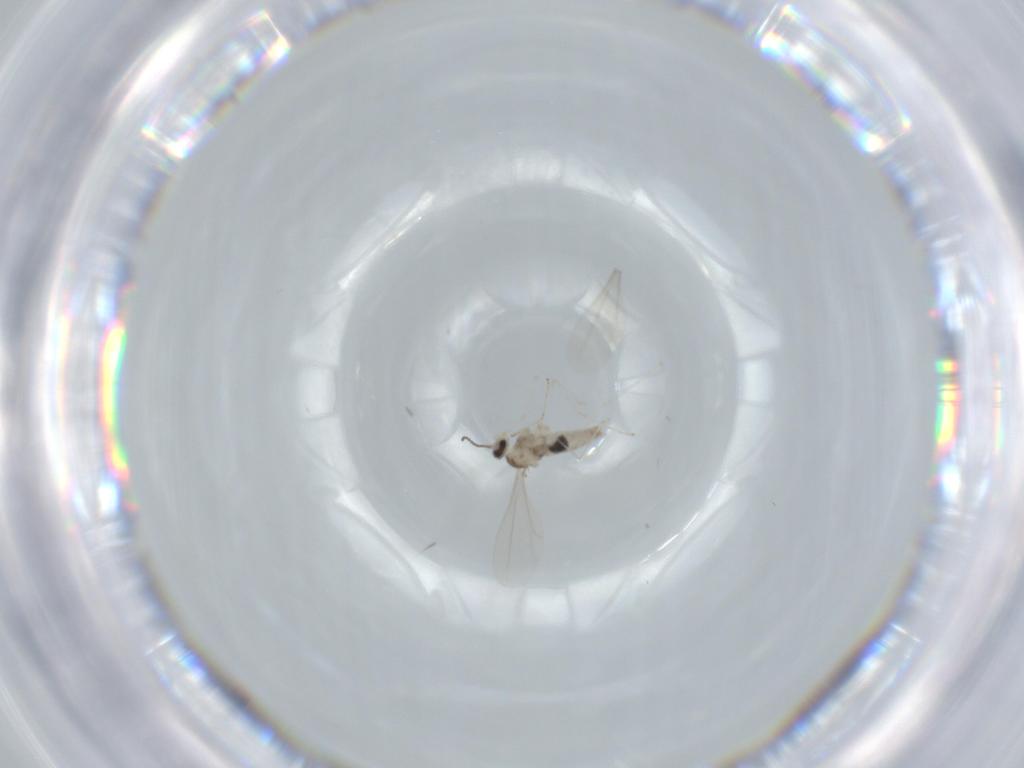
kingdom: Animalia
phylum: Arthropoda
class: Insecta
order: Diptera
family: Cecidomyiidae
